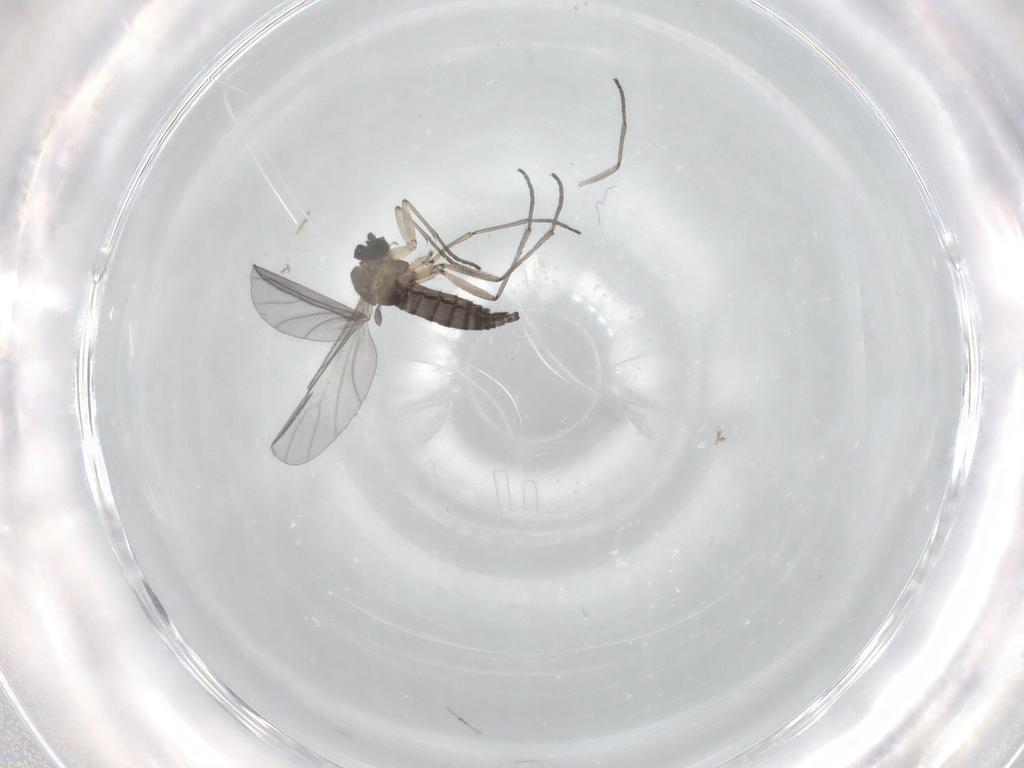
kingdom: Animalia
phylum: Arthropoda
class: Insecta
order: Diptera
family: Sciaridae
